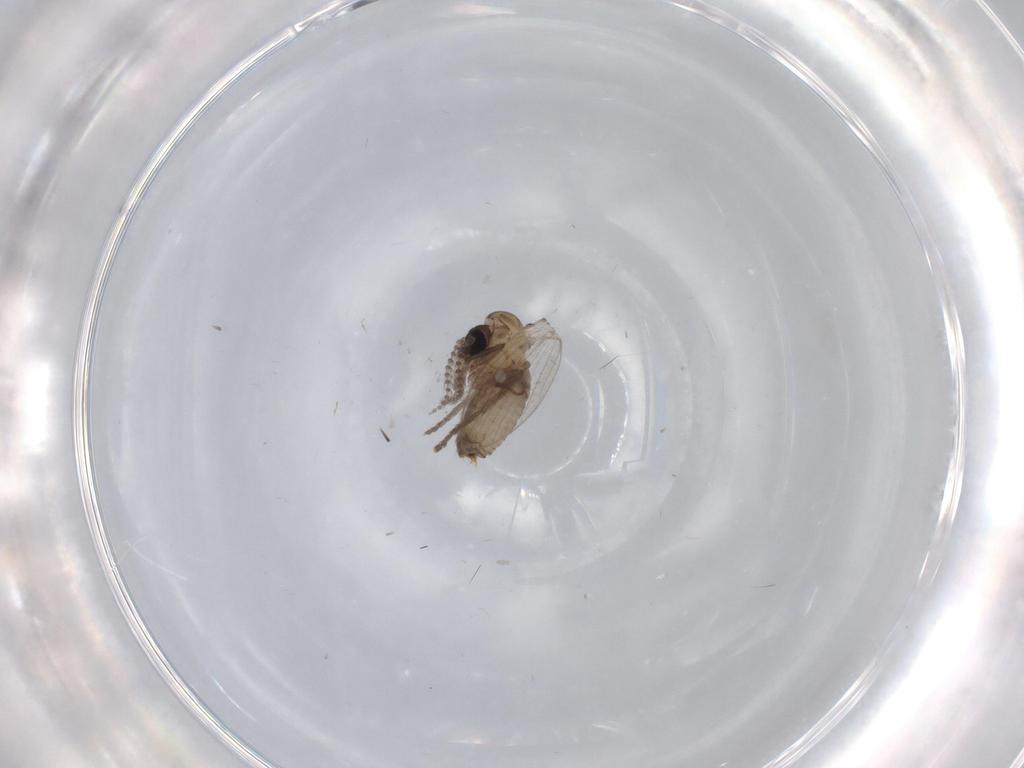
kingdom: Animalia
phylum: Arthropoda
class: Insecta
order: Diptera
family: Psychodidae
